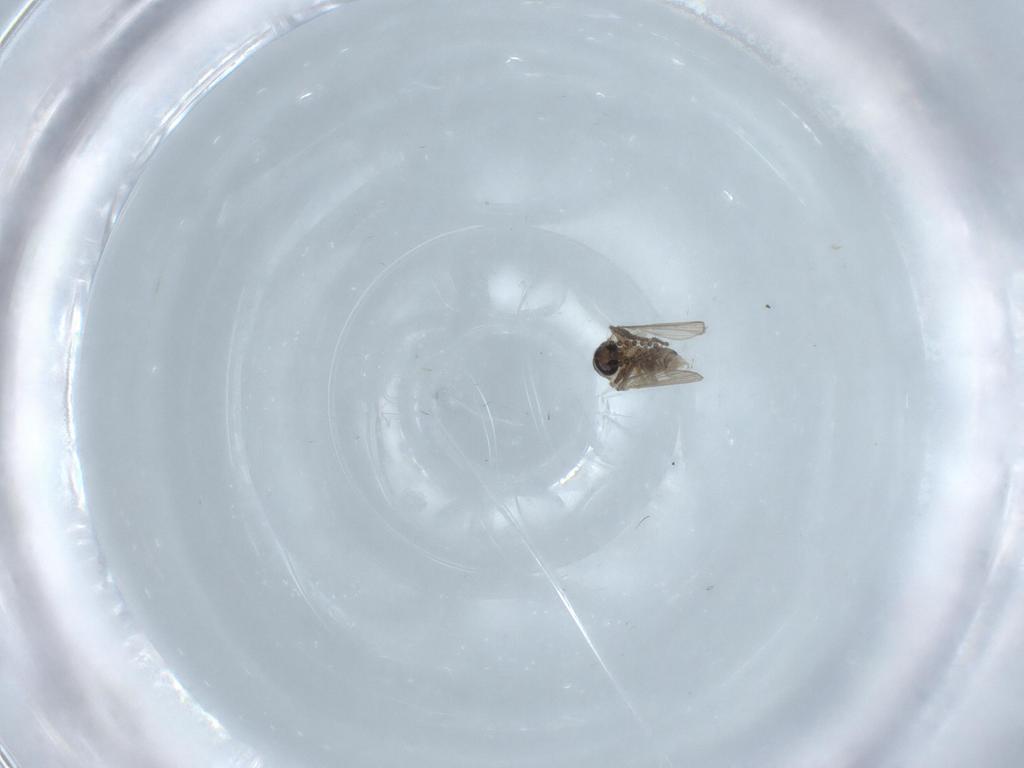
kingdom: Animalia
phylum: Arthropoda
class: Insecta
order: Diptera
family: Psychodidae
